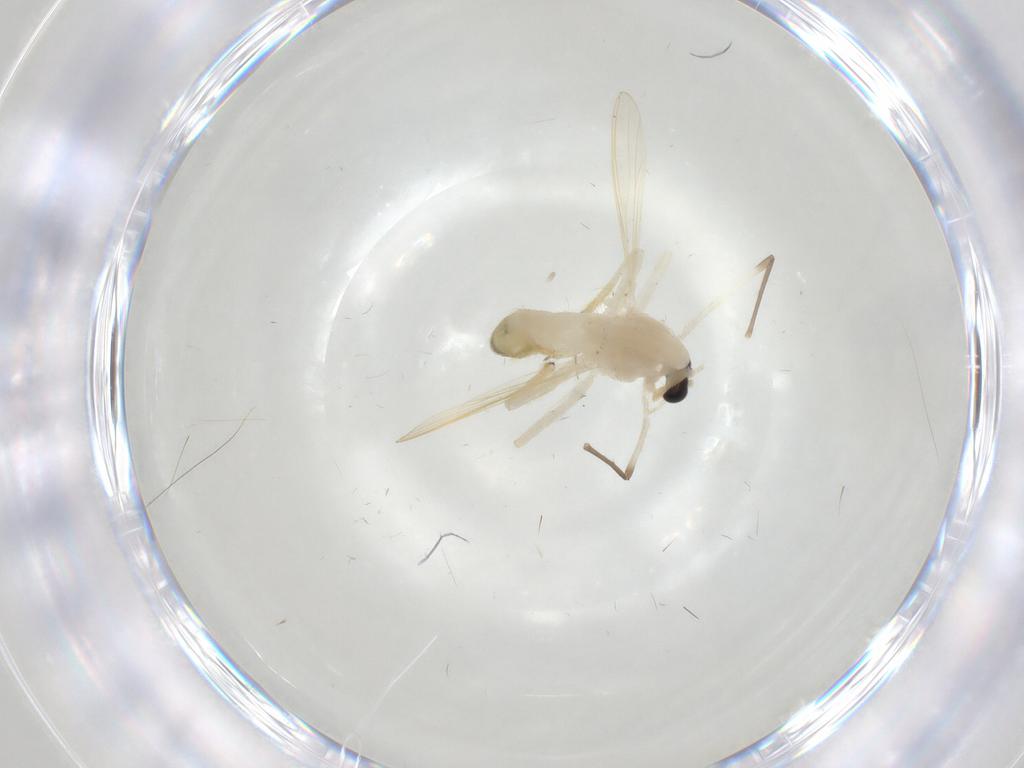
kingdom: Animalia
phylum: Arthropoda
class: Insecta
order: Diptera
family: Chironomidae
